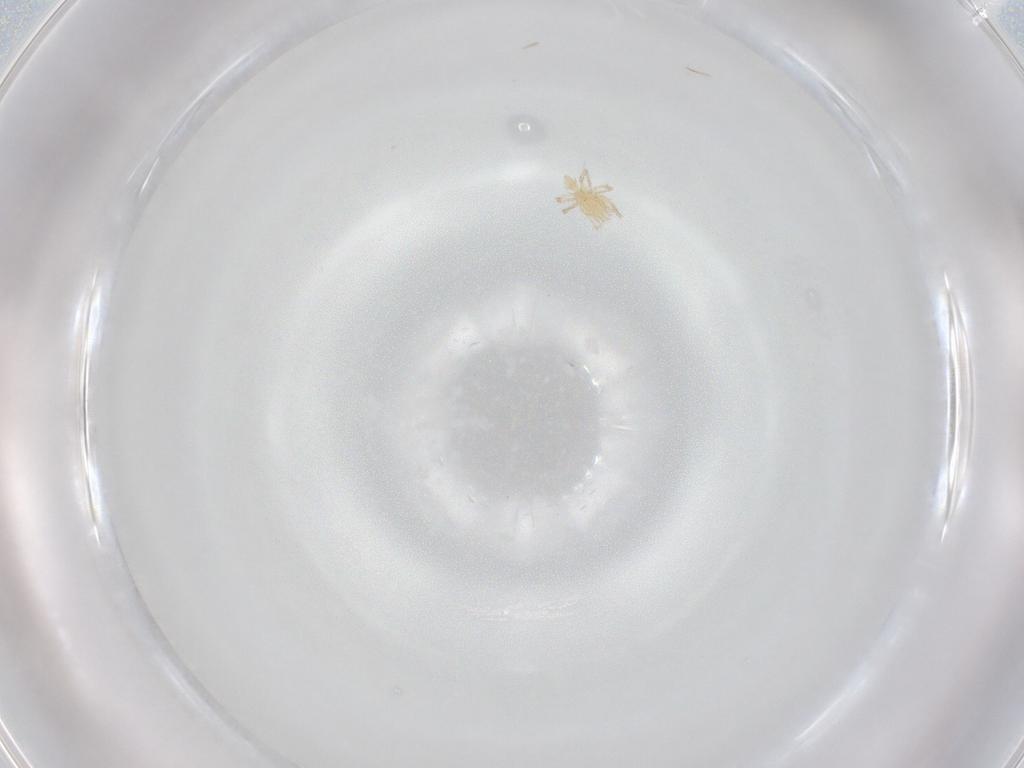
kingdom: Animalia
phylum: Arthropoda
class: Arachnida
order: Trombidiformes
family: Erythraeidae
